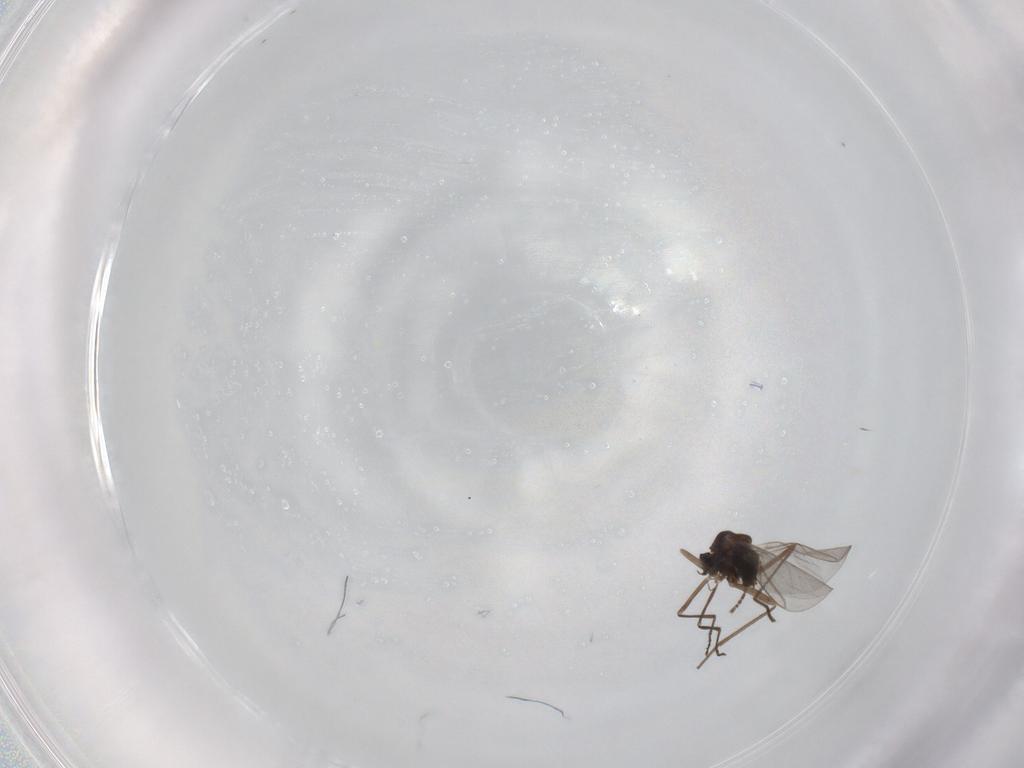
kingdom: Animalia
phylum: Arthropoda
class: Insecta
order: Diptera
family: Cecidomyiidae
